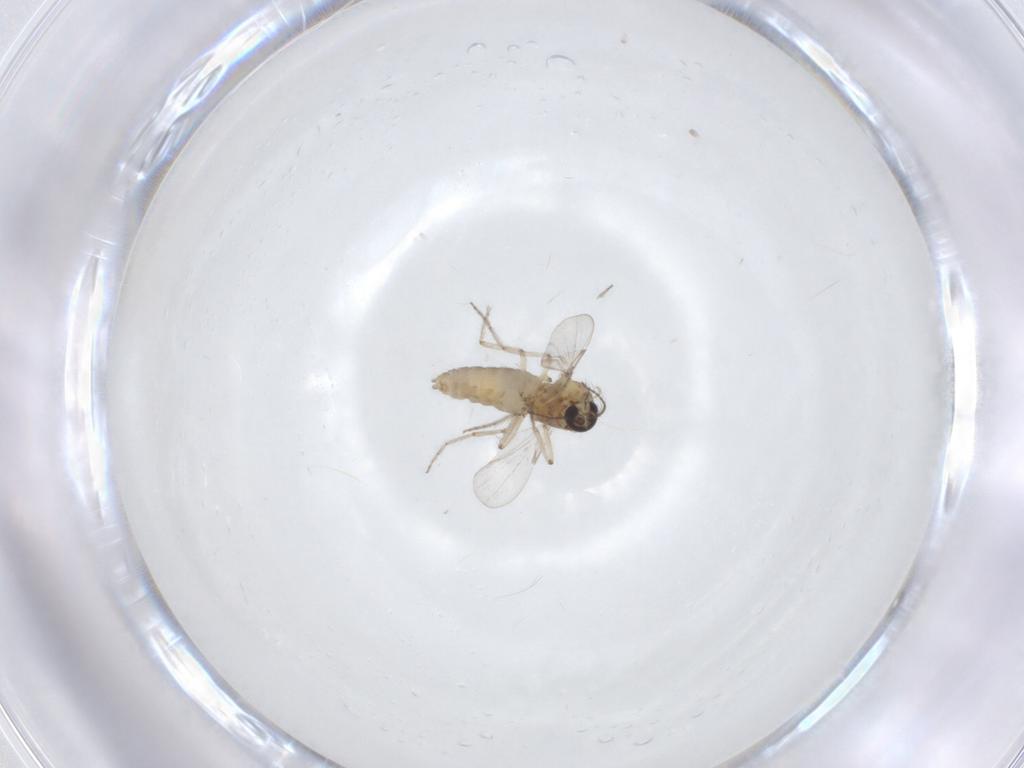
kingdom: Animalia
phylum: Arthropoda
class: Insecta
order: Diptera
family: Ceratopogonidae
